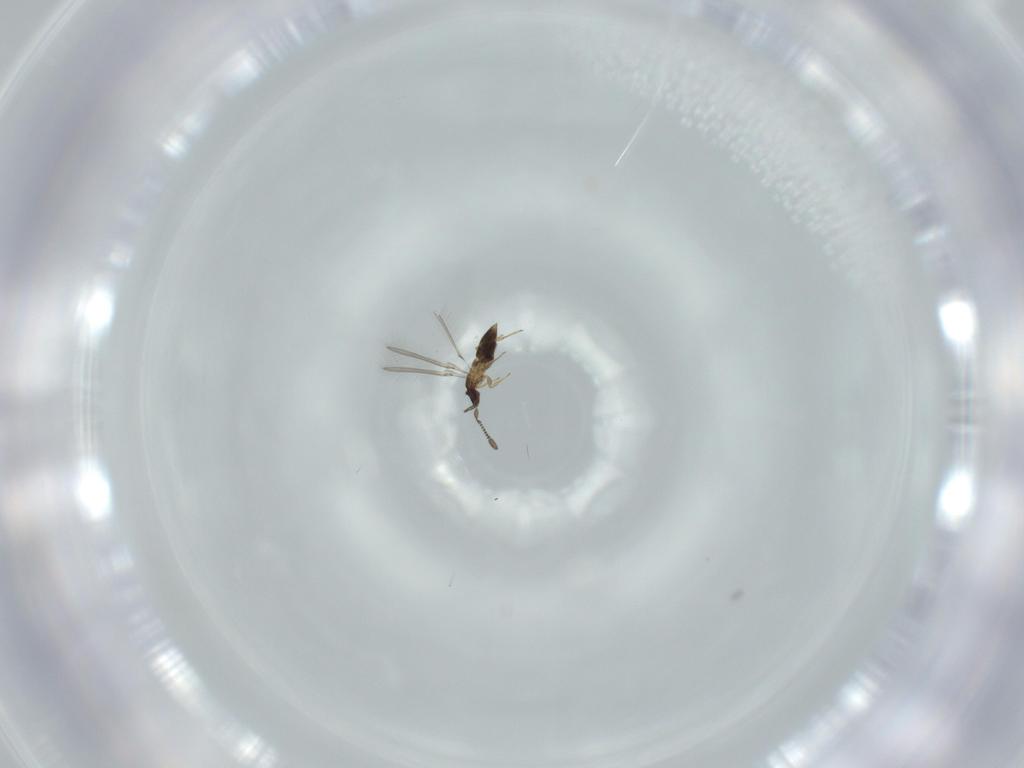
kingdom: Animalia
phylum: Arthropoda
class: Insecta
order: Hymenoptera
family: Mymaridae
